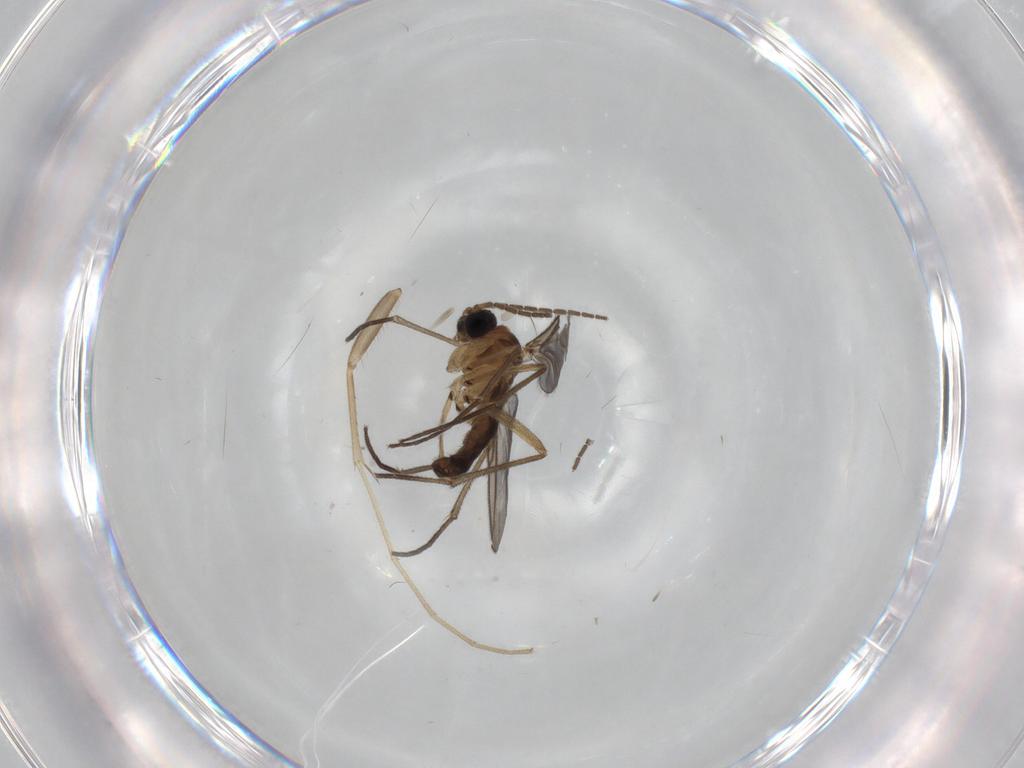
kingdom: Animalia
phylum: Arthropoda
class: Insecta
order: Diptera
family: Sciaridae
